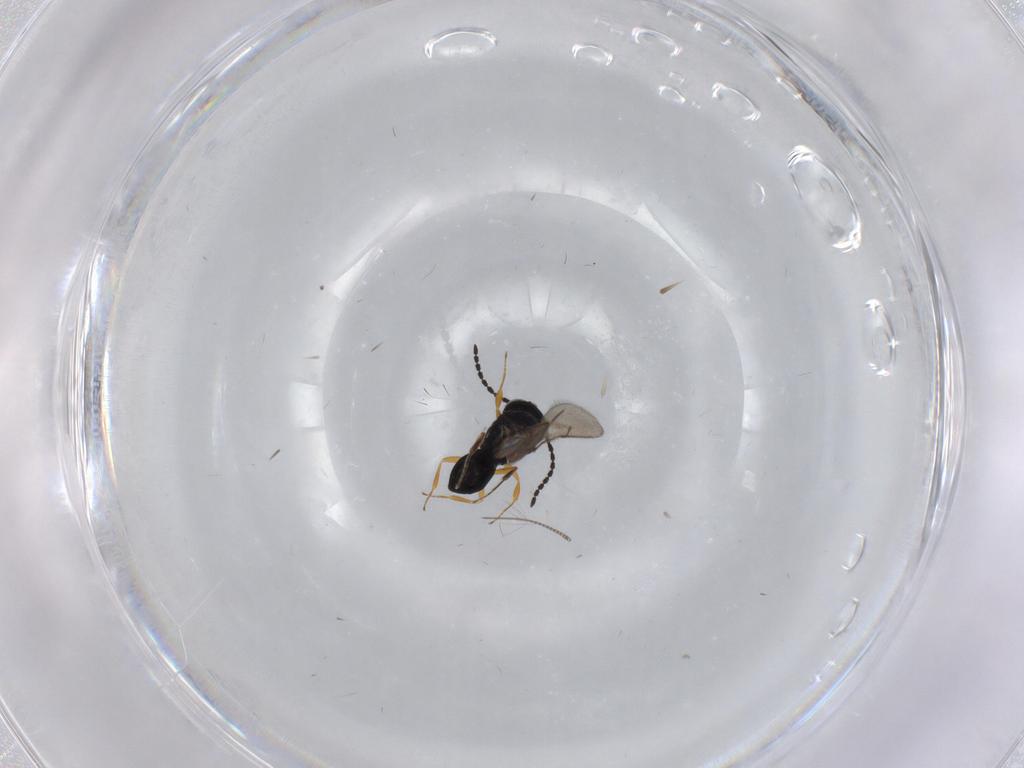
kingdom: Animalia
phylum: Arthropoda
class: Insecta
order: Hymenoptera
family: Scelionidae
